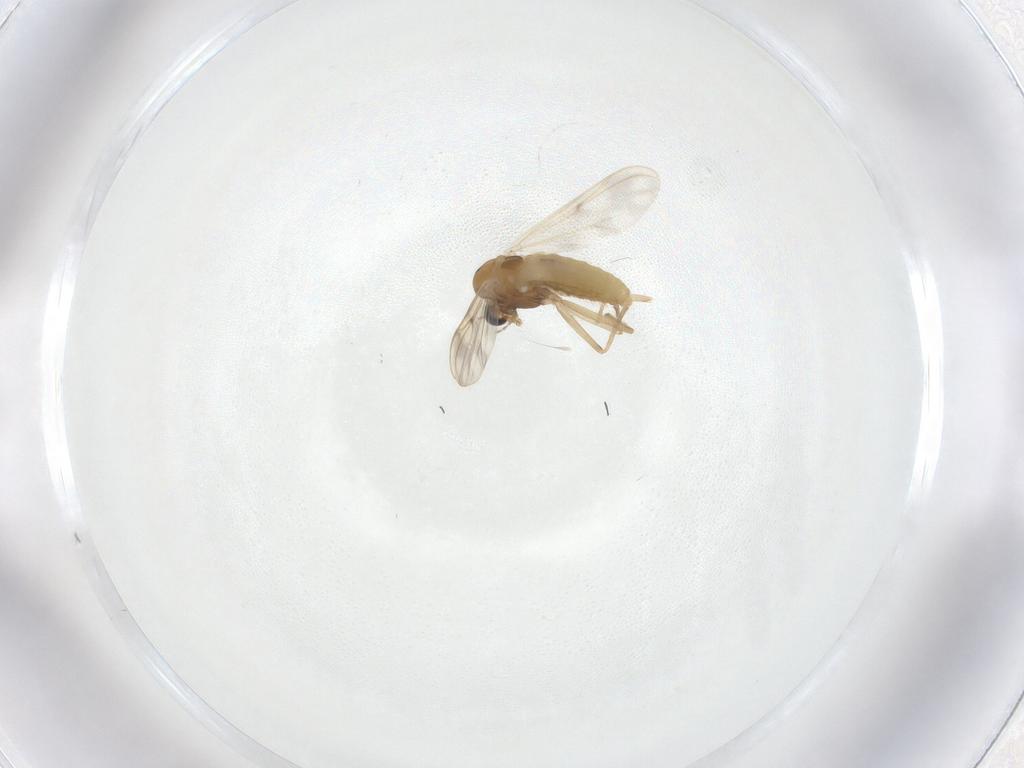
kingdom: Animalia
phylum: Arthropoda
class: Insecta
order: Diptera
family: Chironomidae
